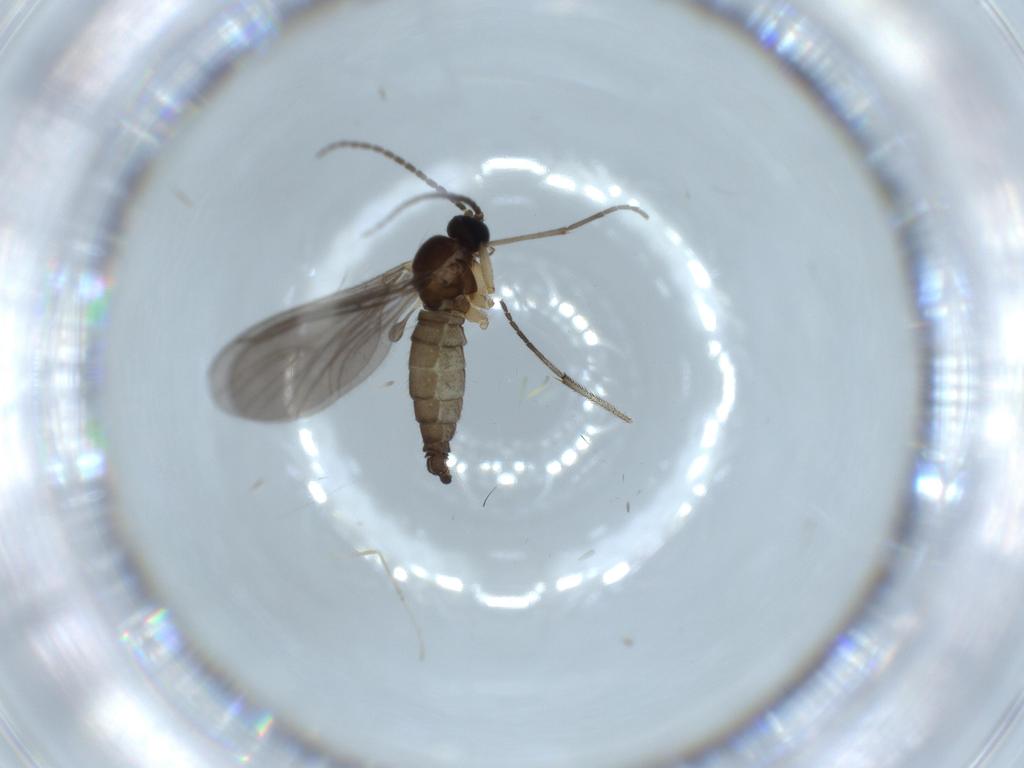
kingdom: Animalia
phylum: Arthropoda
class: Insecta
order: Diptera
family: Sciaridae
